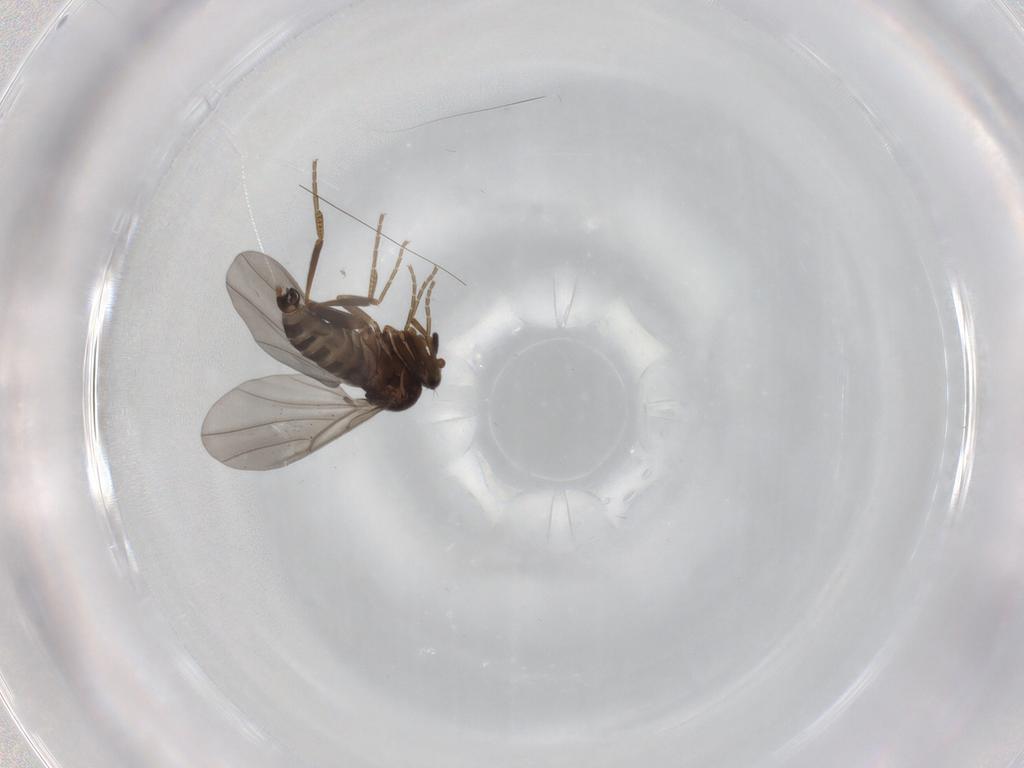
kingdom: Animalia
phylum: Arthropoda
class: Insecta
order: Diptera
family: Phoridae
